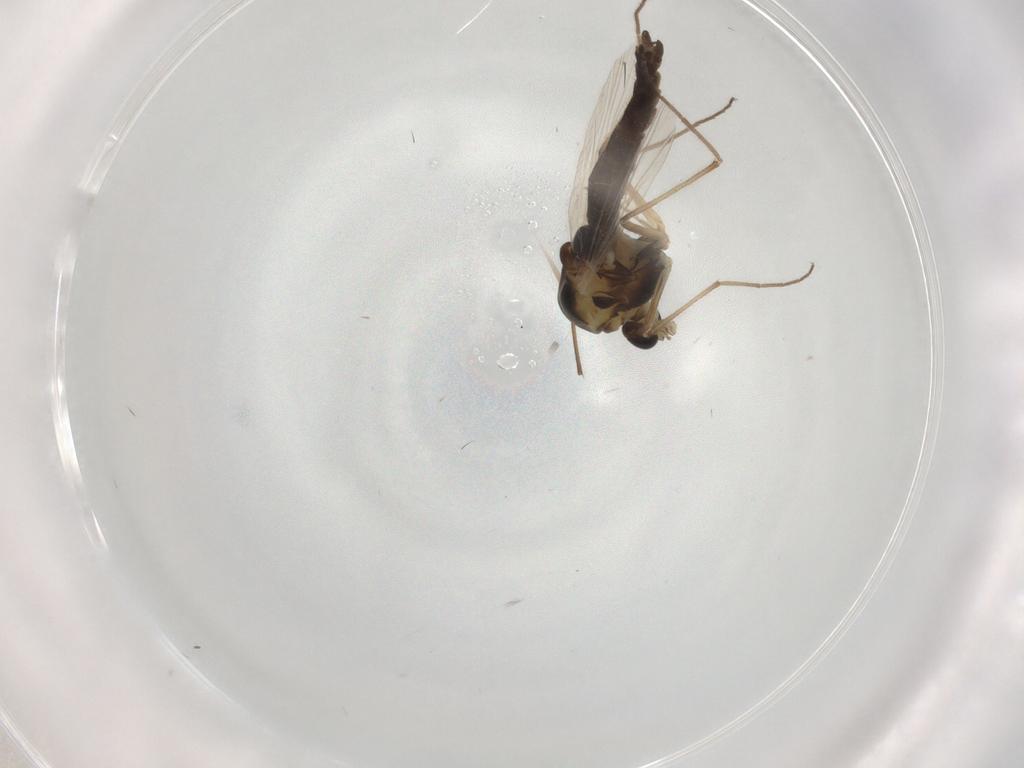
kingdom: Animalia
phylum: Arthropoda
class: Insecta
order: Diptera
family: Chironomidae
